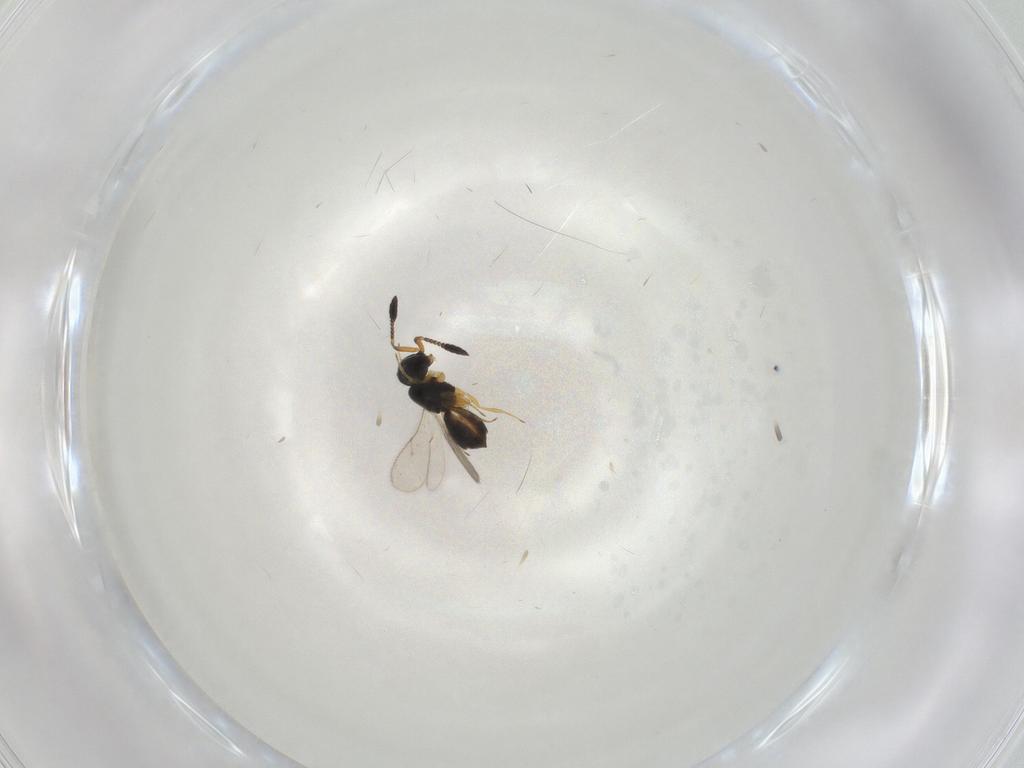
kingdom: Animalia
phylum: Arthropoda
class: Insecta
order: Hymenoptera
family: Scelionidae
